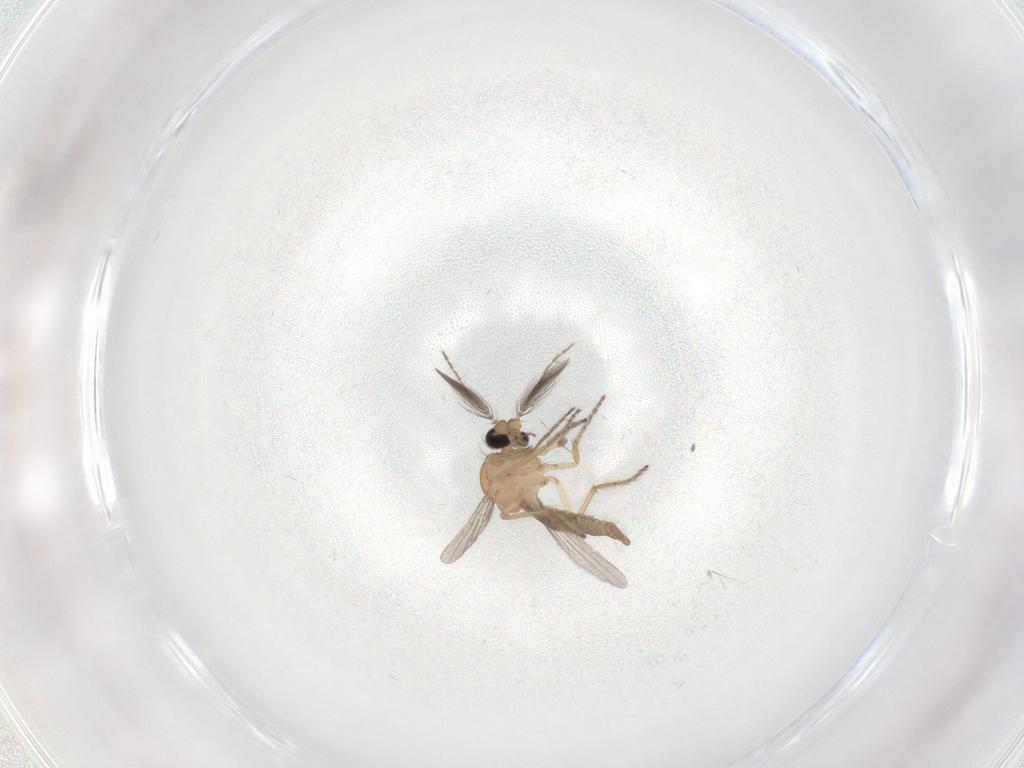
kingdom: Animalia
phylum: Arthropoda
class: Insecta
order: Diptera
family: Ceratopogonidae
